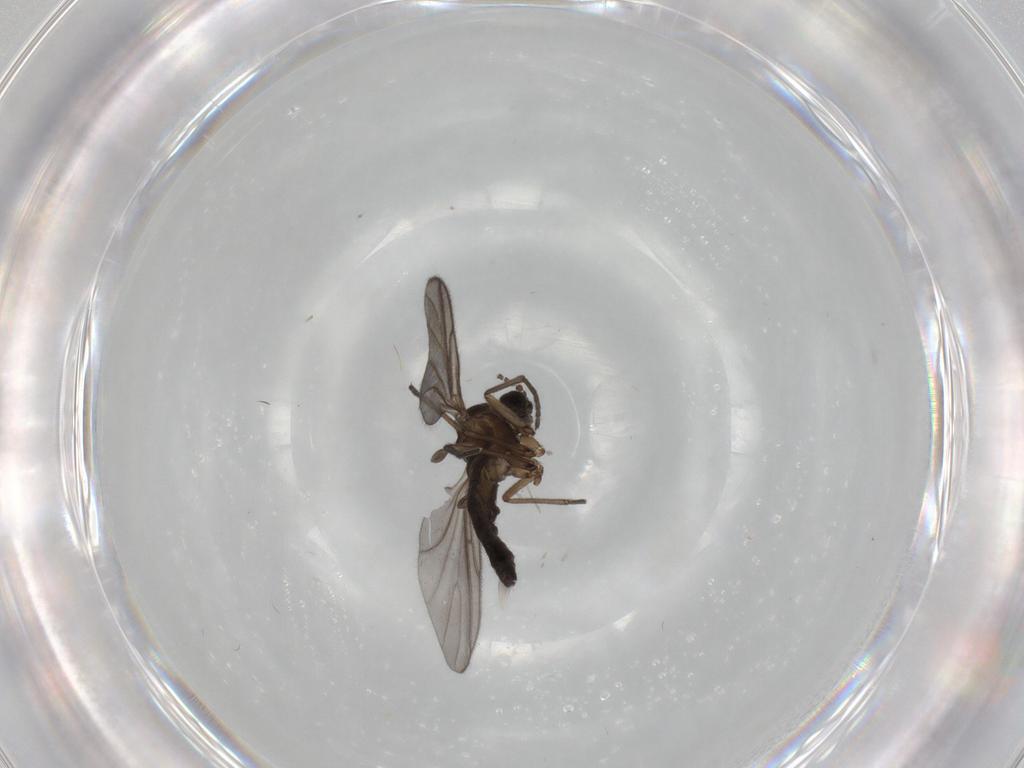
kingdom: Animalia
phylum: Arthropoda
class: Insecta
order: Diptera
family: Sciaridae
